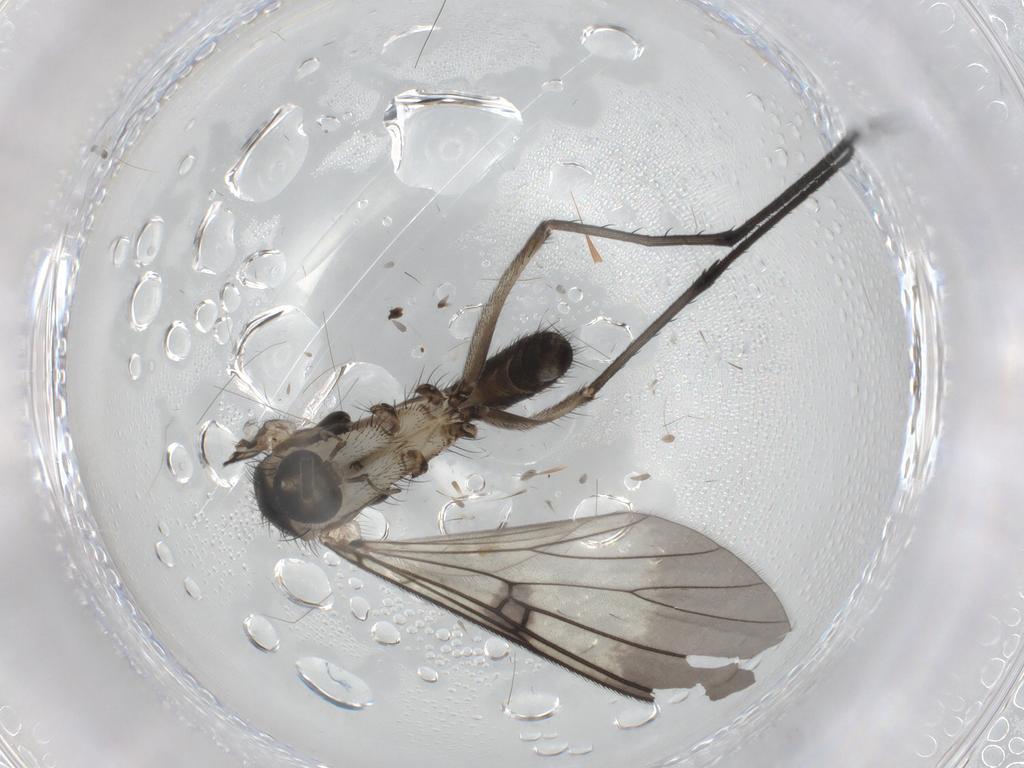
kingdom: Animalia
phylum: Arthropoda
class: Insecta
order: Diptera
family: Mycetophilidae
